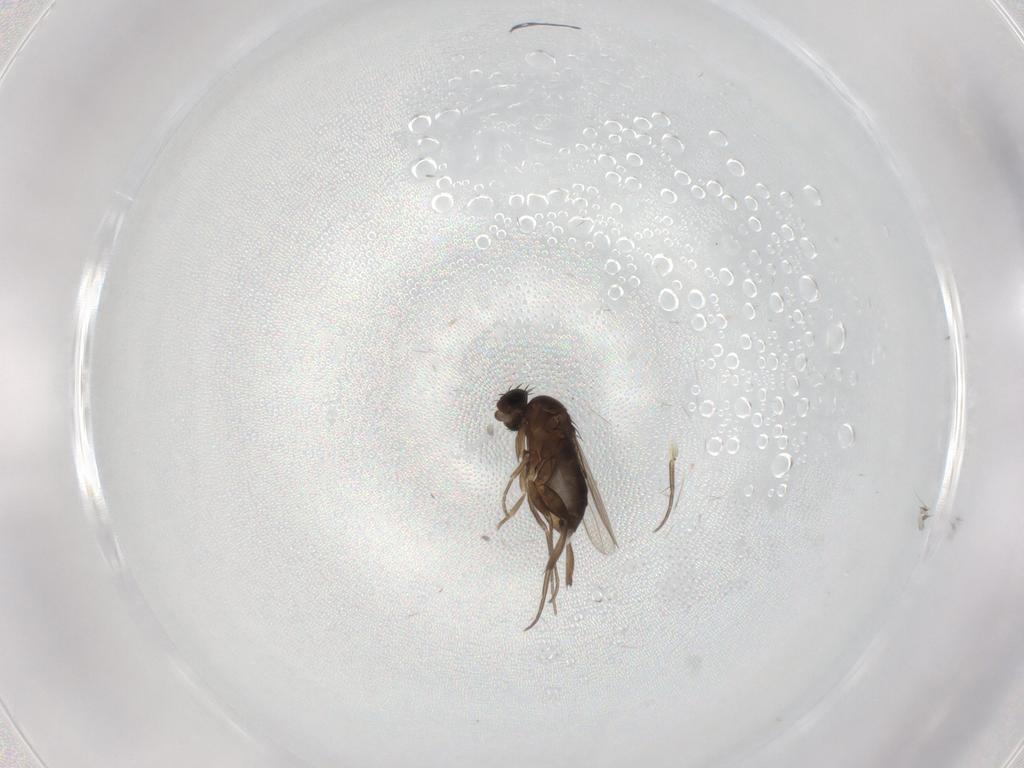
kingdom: Animalia
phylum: Arthropoda
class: Insecta
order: Diptera
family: Phoridae
